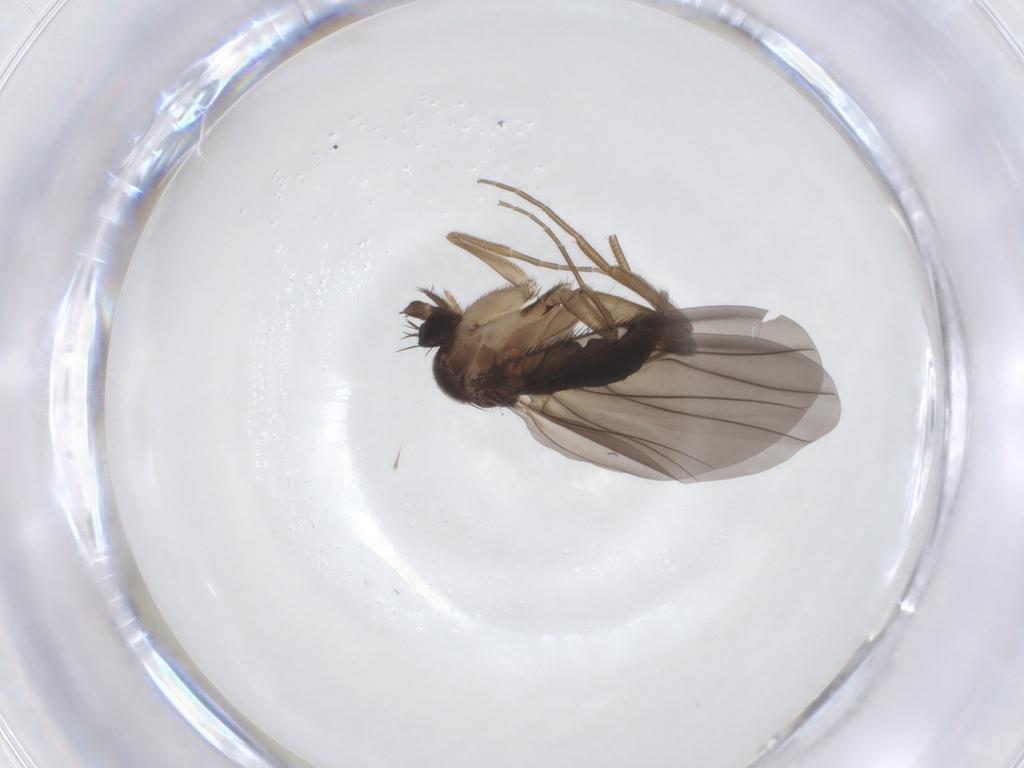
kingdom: Animalia
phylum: Arthropoda
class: Insecta
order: Diptera
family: Phoridae
